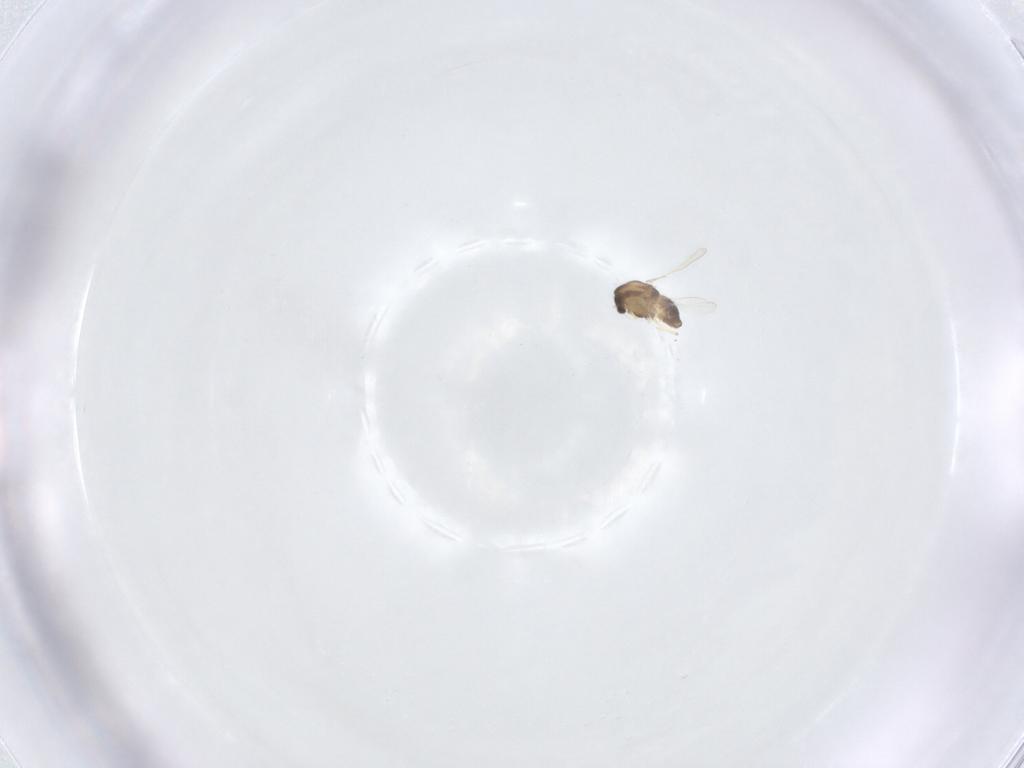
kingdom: Animalia
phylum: Arthropoda
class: Insecta
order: Diptera
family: Chironomidae
